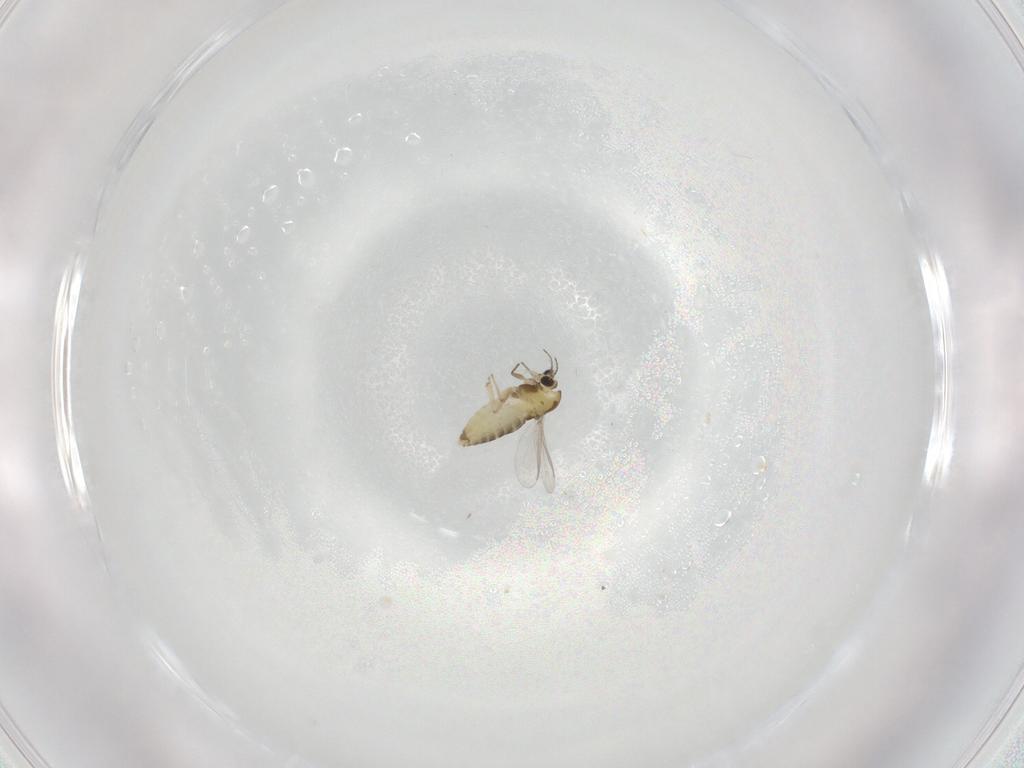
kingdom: Animalia
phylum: Arthropoda
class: Insecta
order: Diptera
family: Chironomidae
